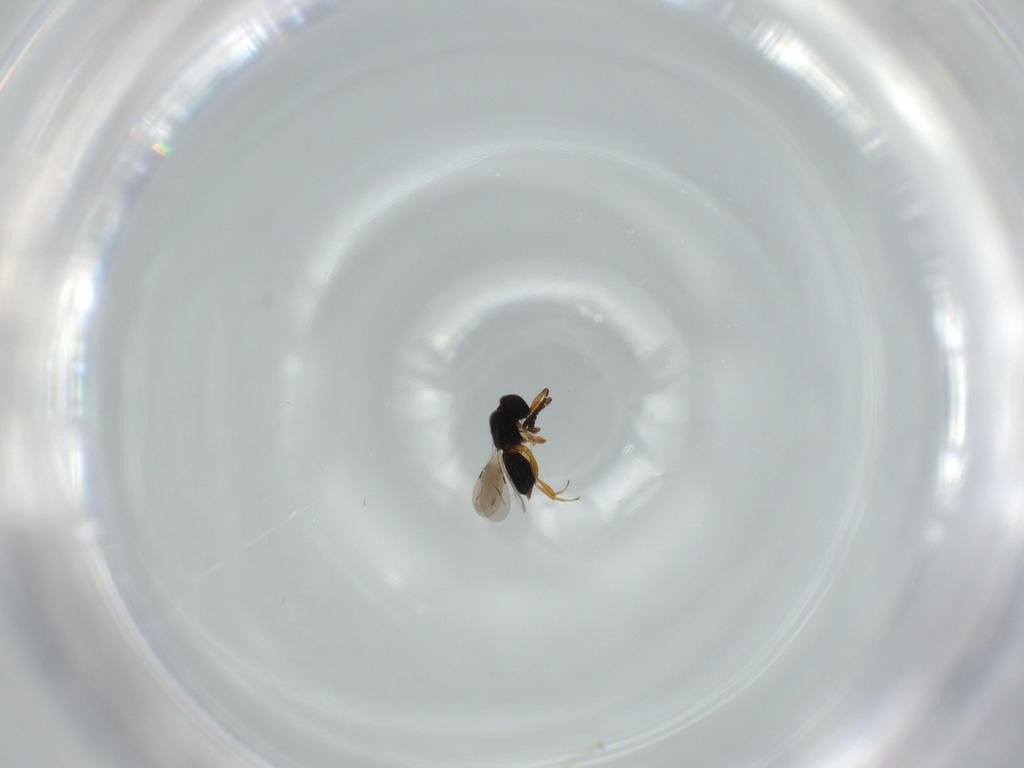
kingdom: Animalia
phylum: Arthropoda
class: Insecta
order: Hymenoptera
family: Ceraphronidae
